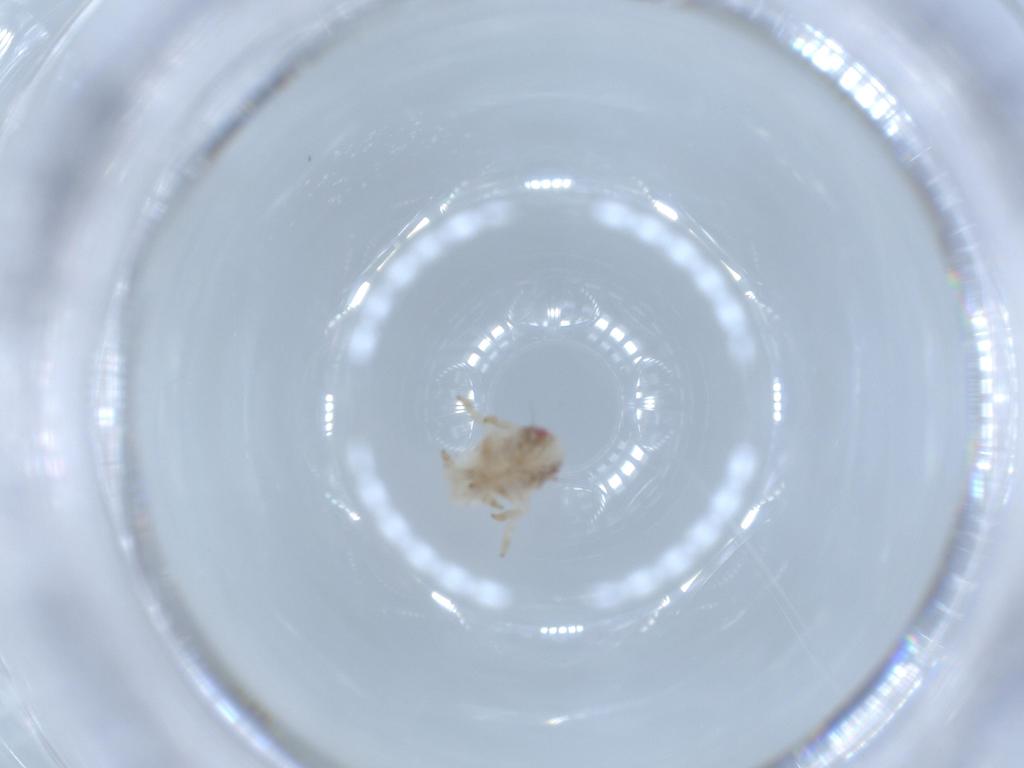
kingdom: Animalia
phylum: Arthropoda
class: Insecta
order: Hemiptera
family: Acanaloniidae
